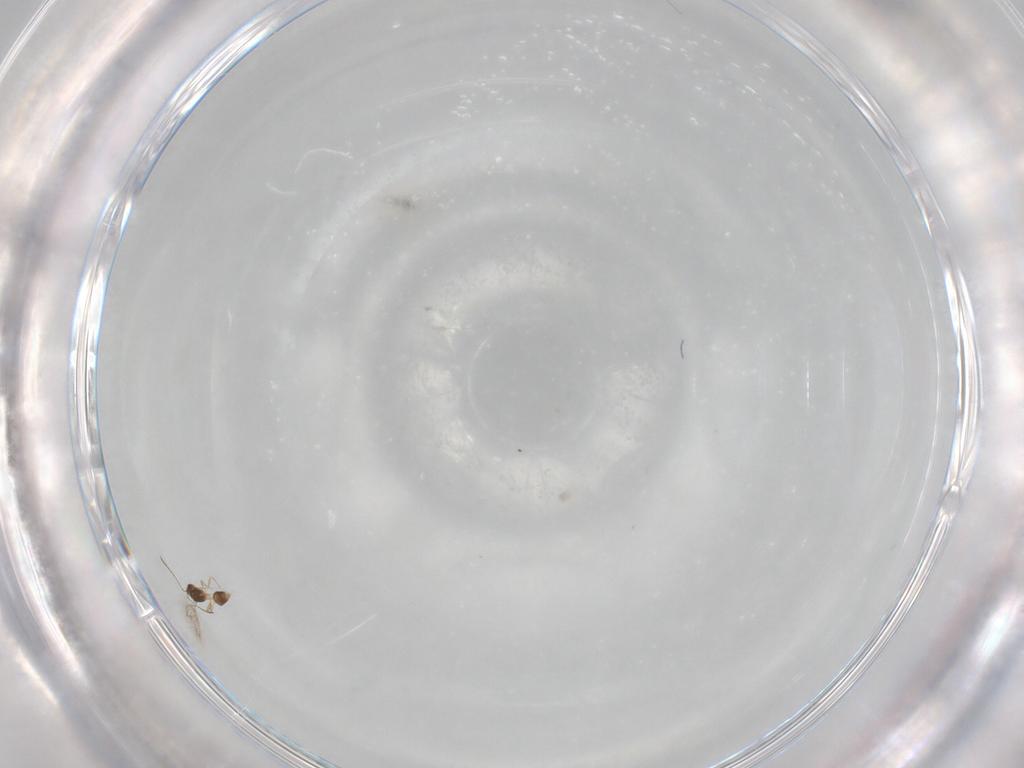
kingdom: Animalia
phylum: Arthropoda
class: Insecta
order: Hymenoptera
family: Mymarommatidae
